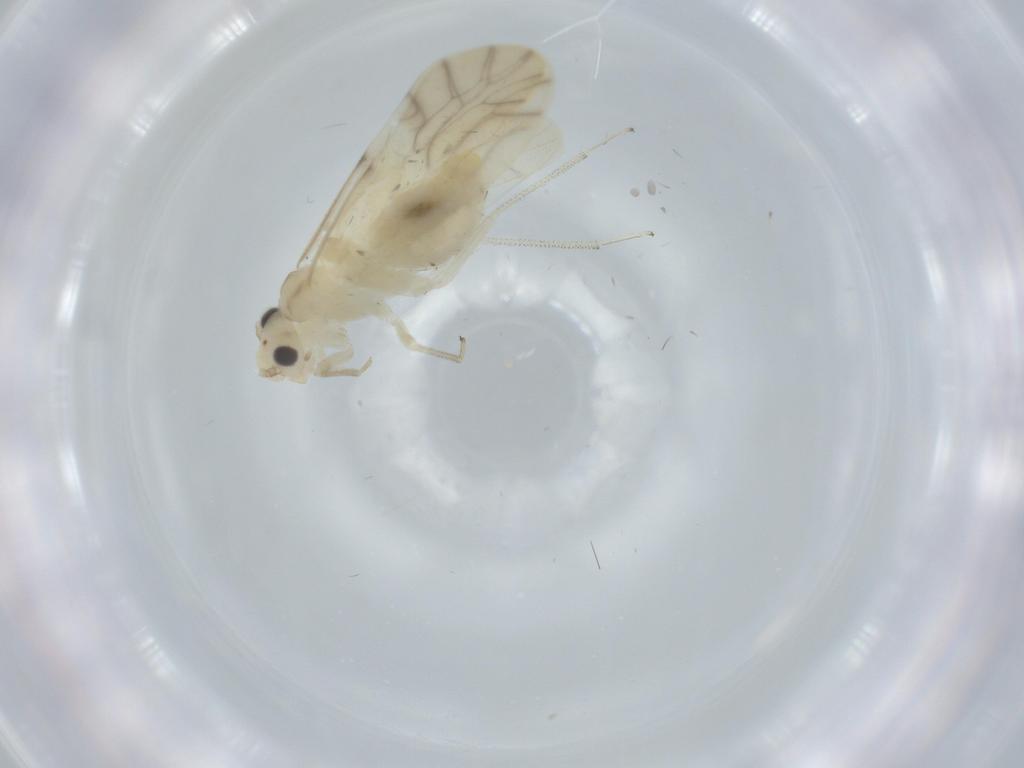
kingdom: Animalia
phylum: Arthropoda
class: Insecta
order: Psocodea
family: Caeciliusidae
